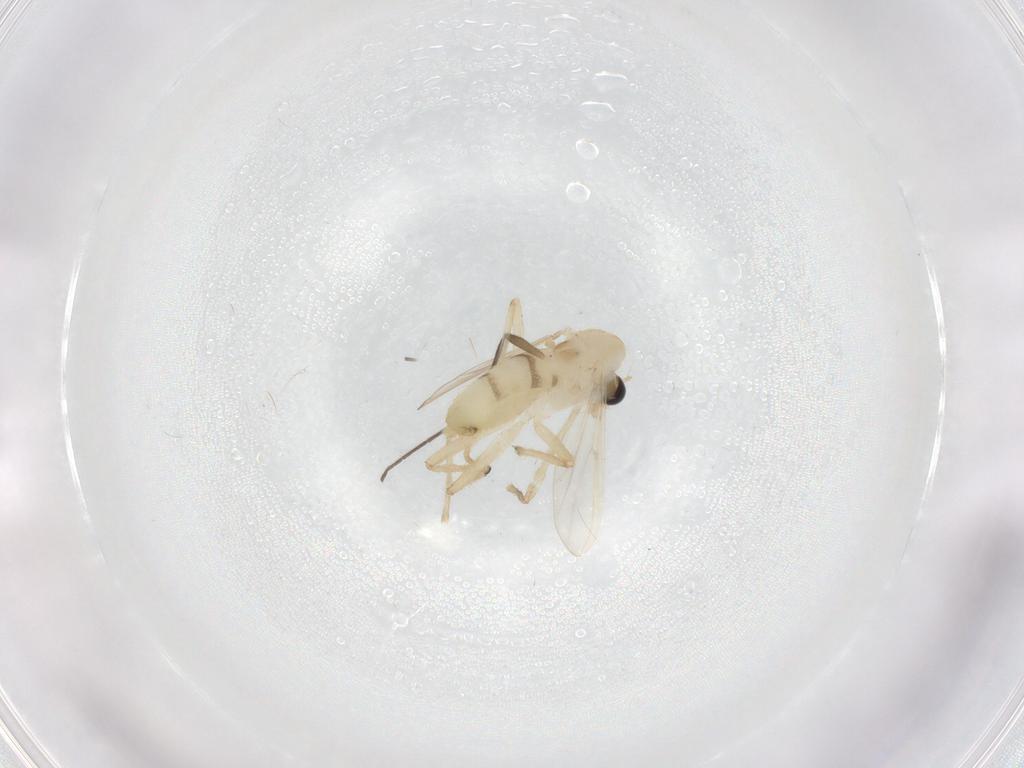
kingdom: Animalia
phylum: Arthropoda
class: Insecta
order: Diptera
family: Chironomidae
